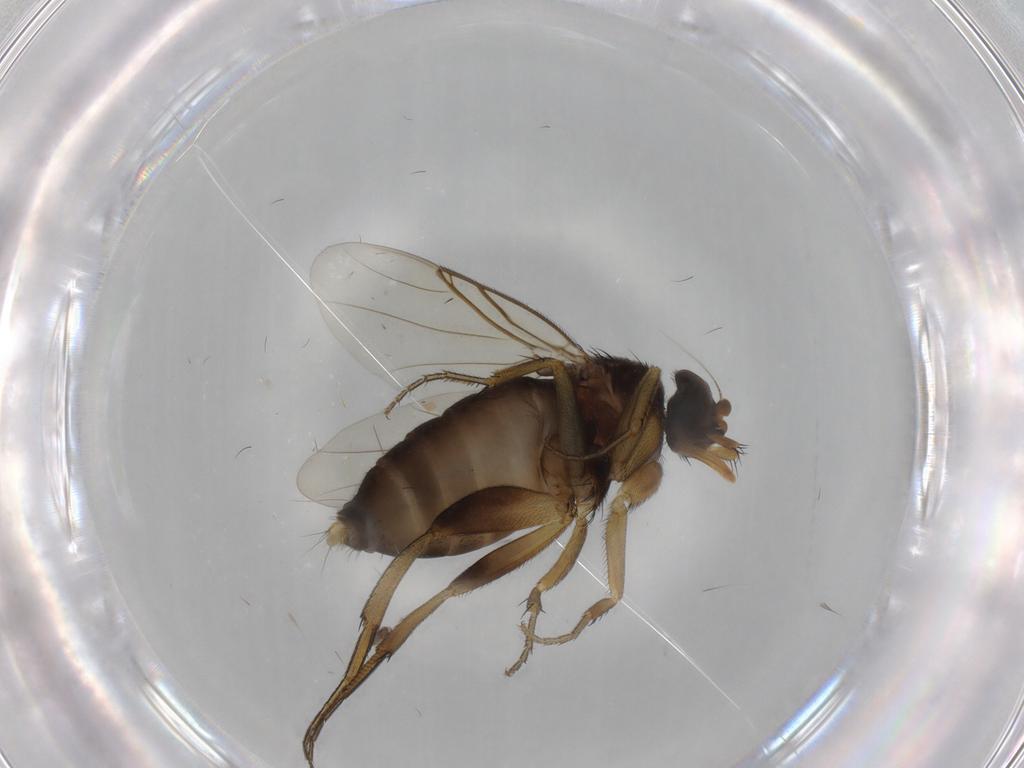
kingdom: Animalia
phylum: Arthropoda
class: Insecta
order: Diptera
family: Phoridae
